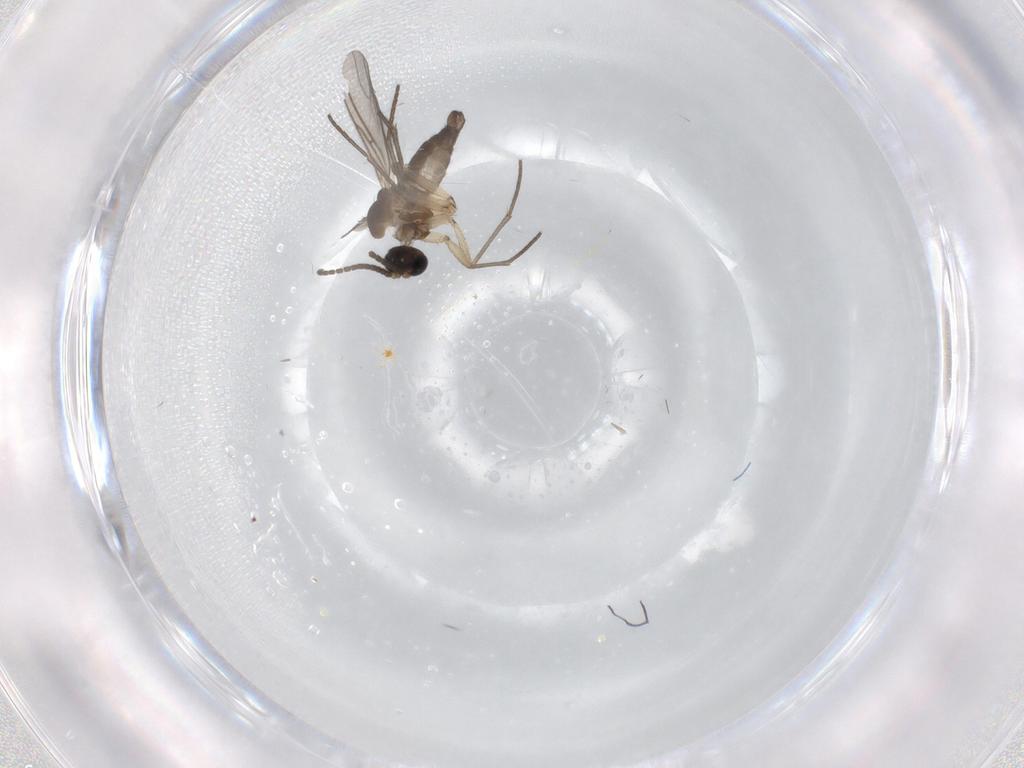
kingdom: Animalia
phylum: Arthropoda
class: Insecta
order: Diptera
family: Sciaridae
